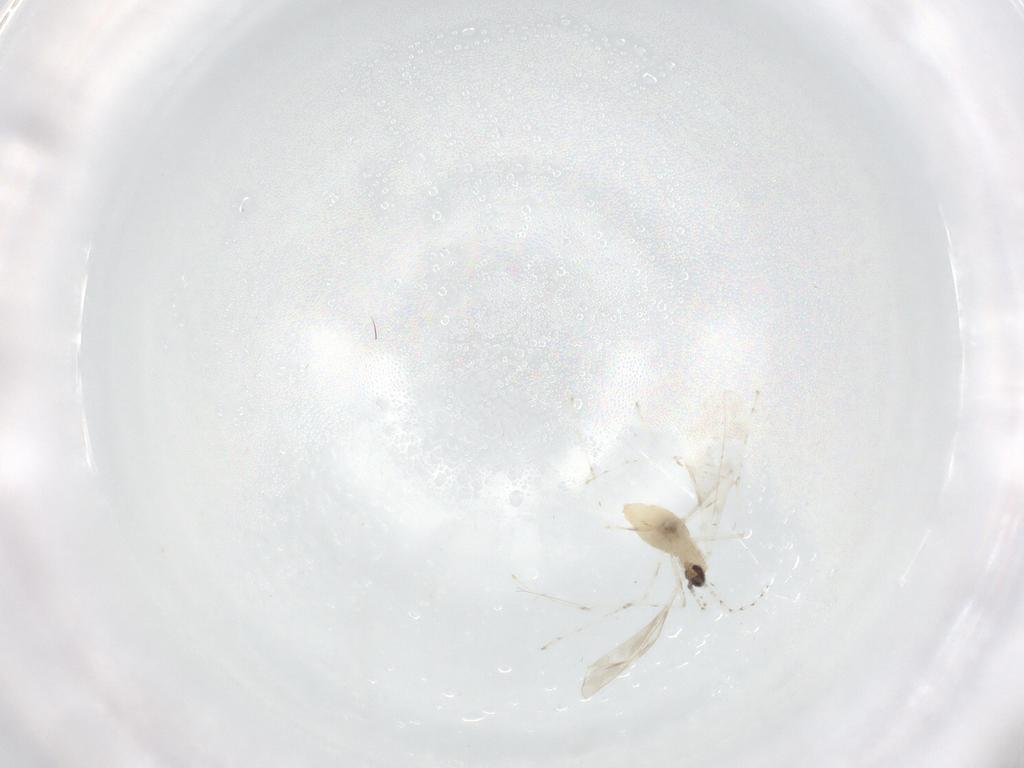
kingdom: Animalia
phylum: Arthropoda
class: Insecta
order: Diptera
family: Cecidomyiidae
